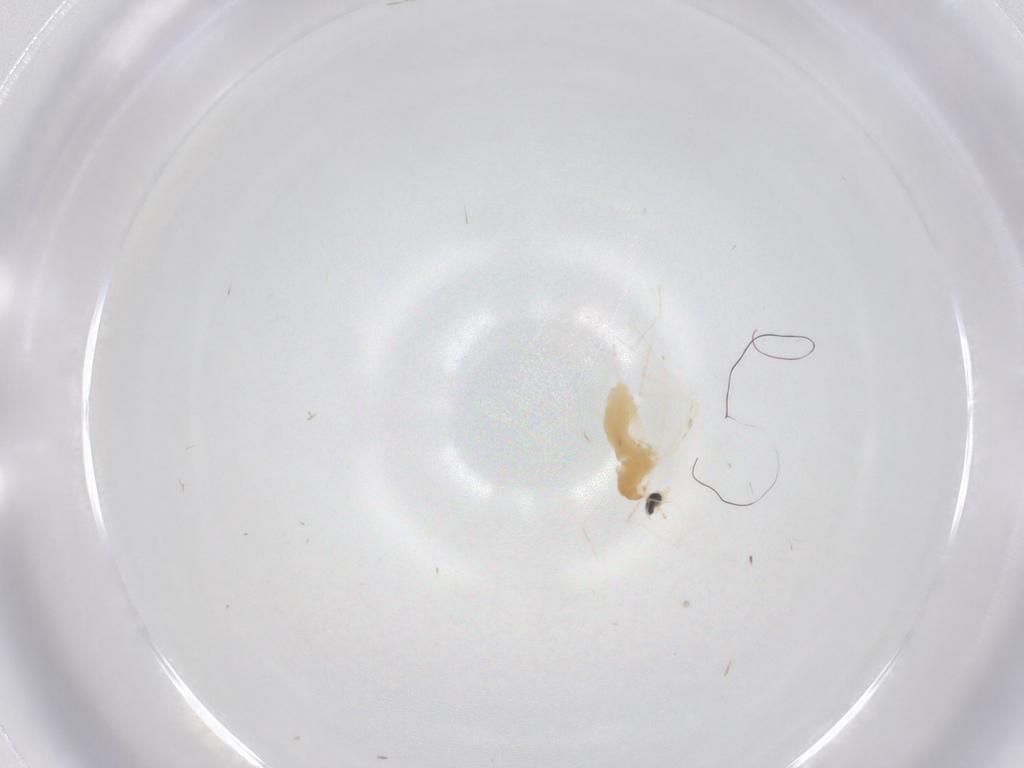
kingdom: Animalia
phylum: Arthropoda
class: Insecta
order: Diptera
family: Cecidomyiidae
